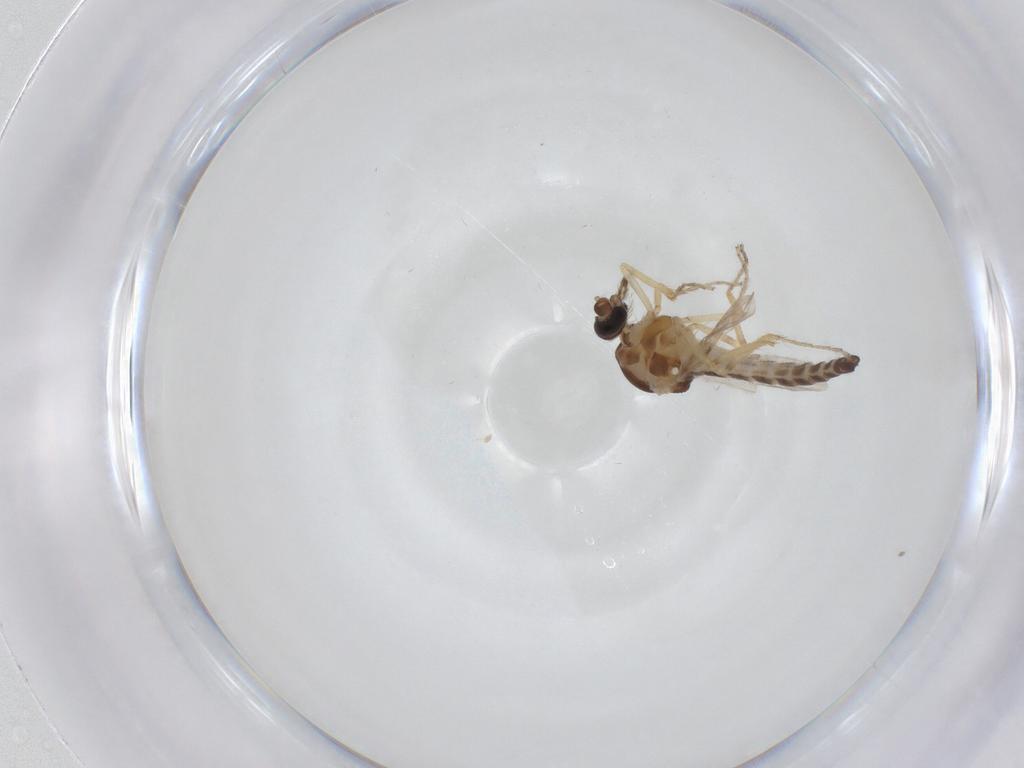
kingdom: Animalia
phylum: Arthropoda
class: Insecta
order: Diptera
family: Ceratopogonidae
